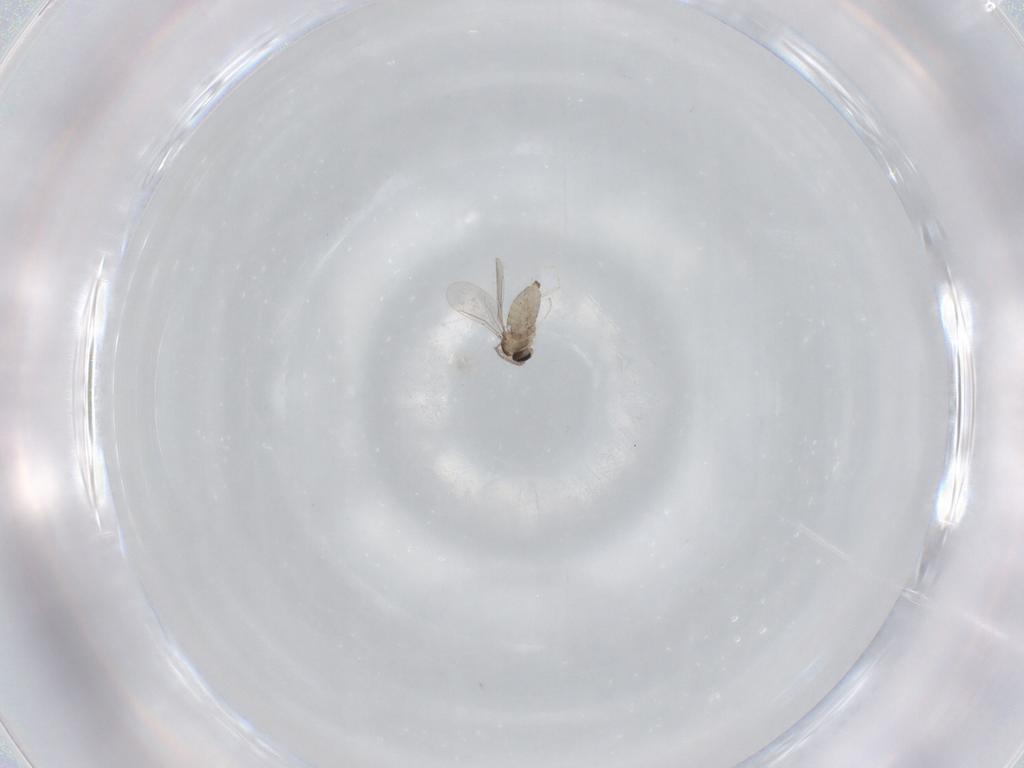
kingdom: Animalia
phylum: Arthropoda
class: Insecta
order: Diptera
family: Cecidomyiidae
